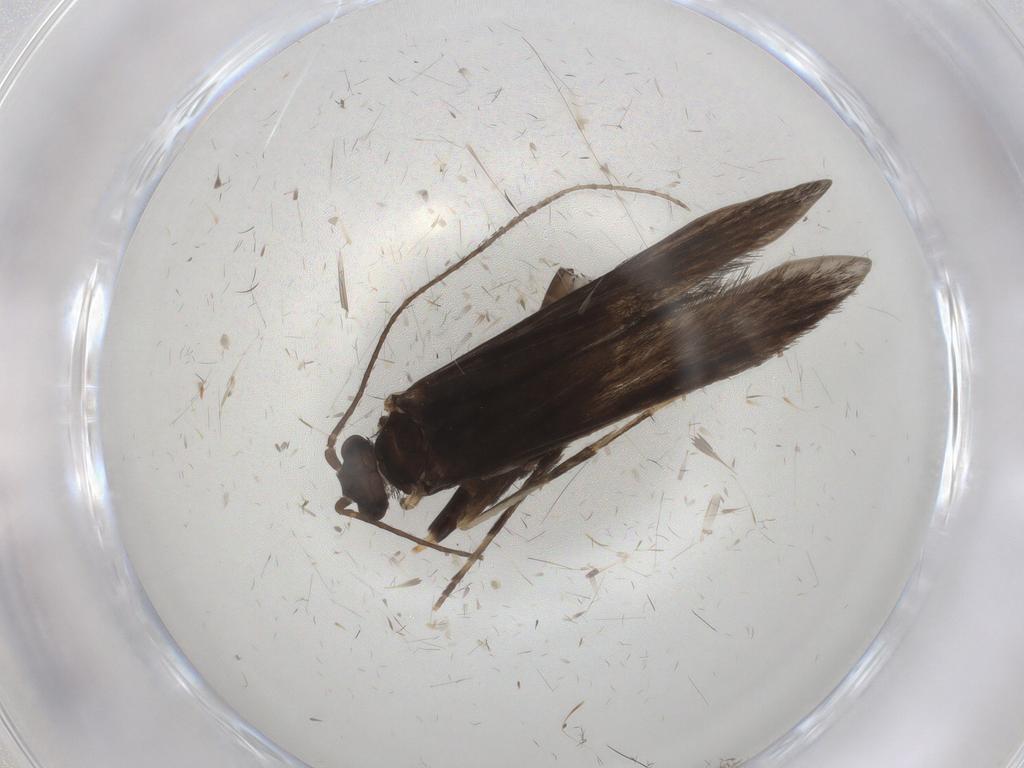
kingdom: Animalia
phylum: Arthropoda
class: Insecta
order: Trichoptera
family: Xiphocentronidae
